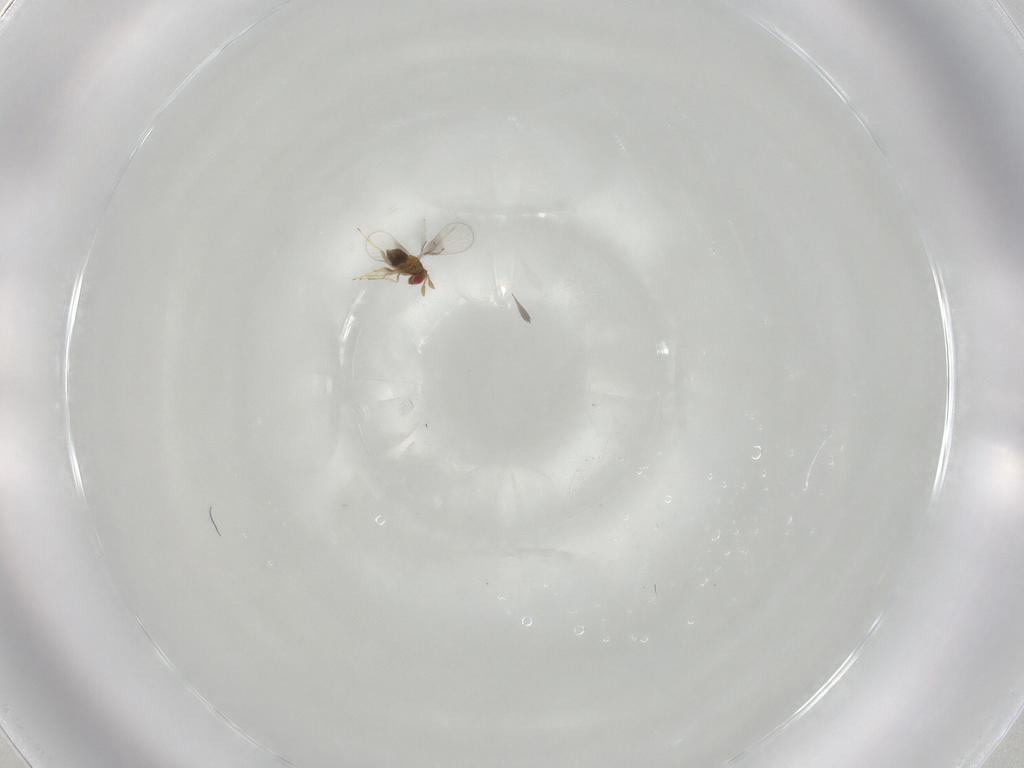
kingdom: Animalia
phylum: Arthropoda
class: Insecta
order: Hymenoptera
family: Trichogrammatidae
